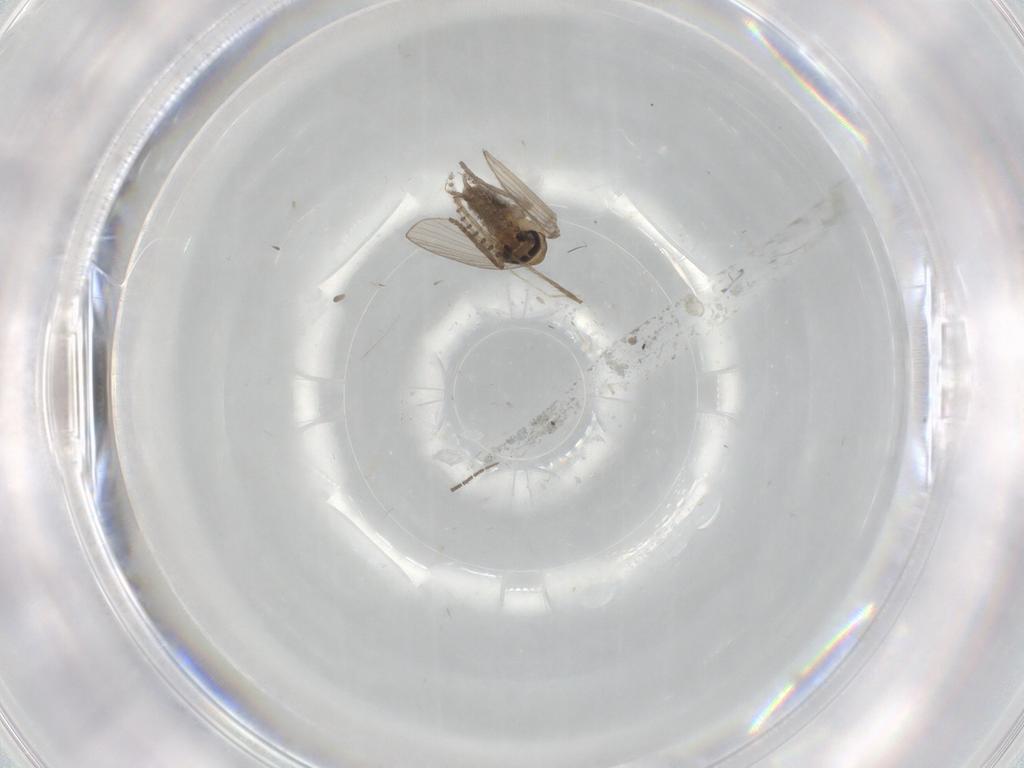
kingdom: Animalia
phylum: Arthropoda
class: Insecta
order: Diptera
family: Psychodidae
